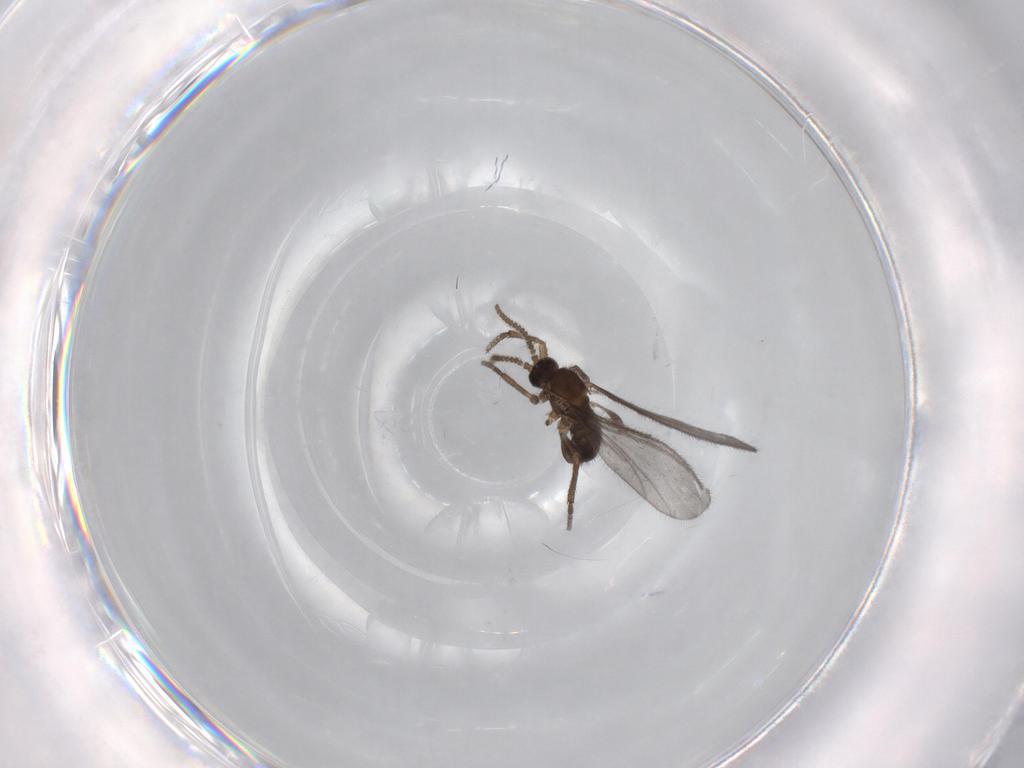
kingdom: Animalia
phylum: Arthropoda
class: Insecta
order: Diptera
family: Sciaridae
